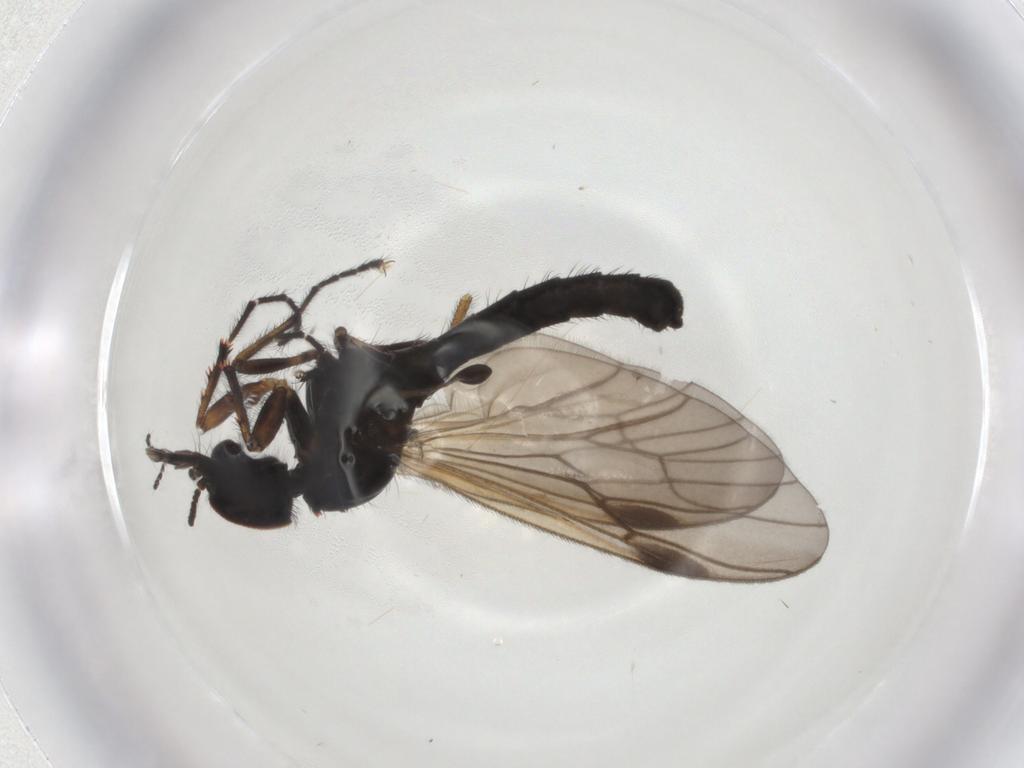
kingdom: Animalia
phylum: Arthropoda
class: Insecta
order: Diptera
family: Bibionidae
